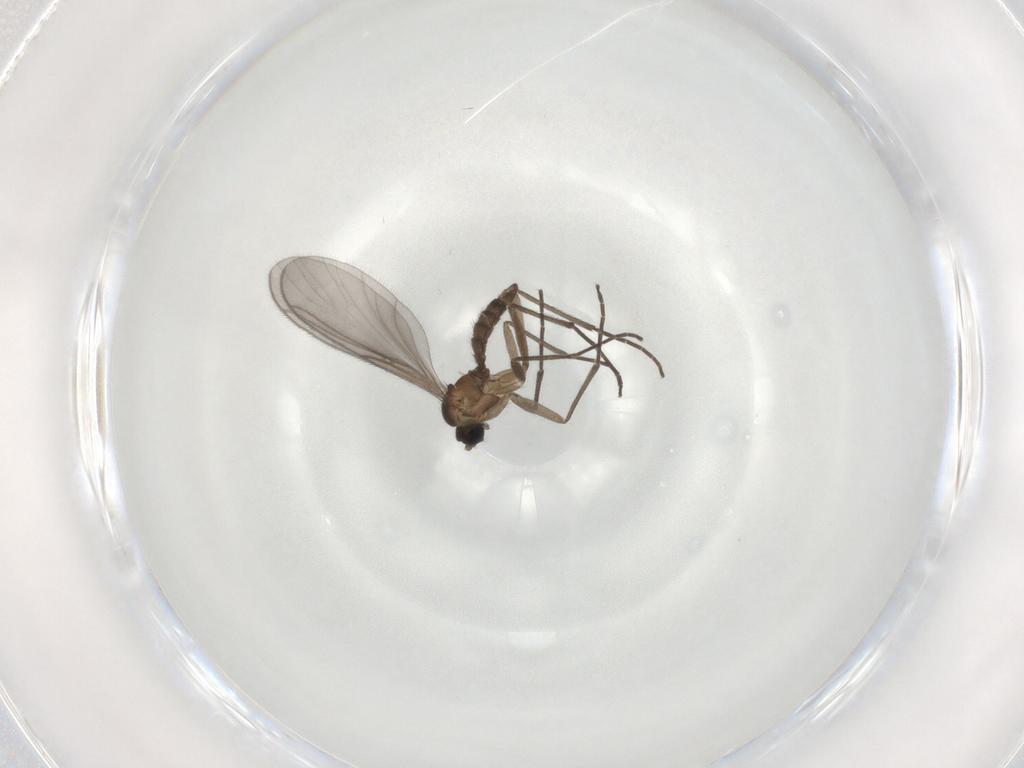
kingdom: Animalia
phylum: Arthropoda
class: Insecta
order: Diptera
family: Sciaridae
